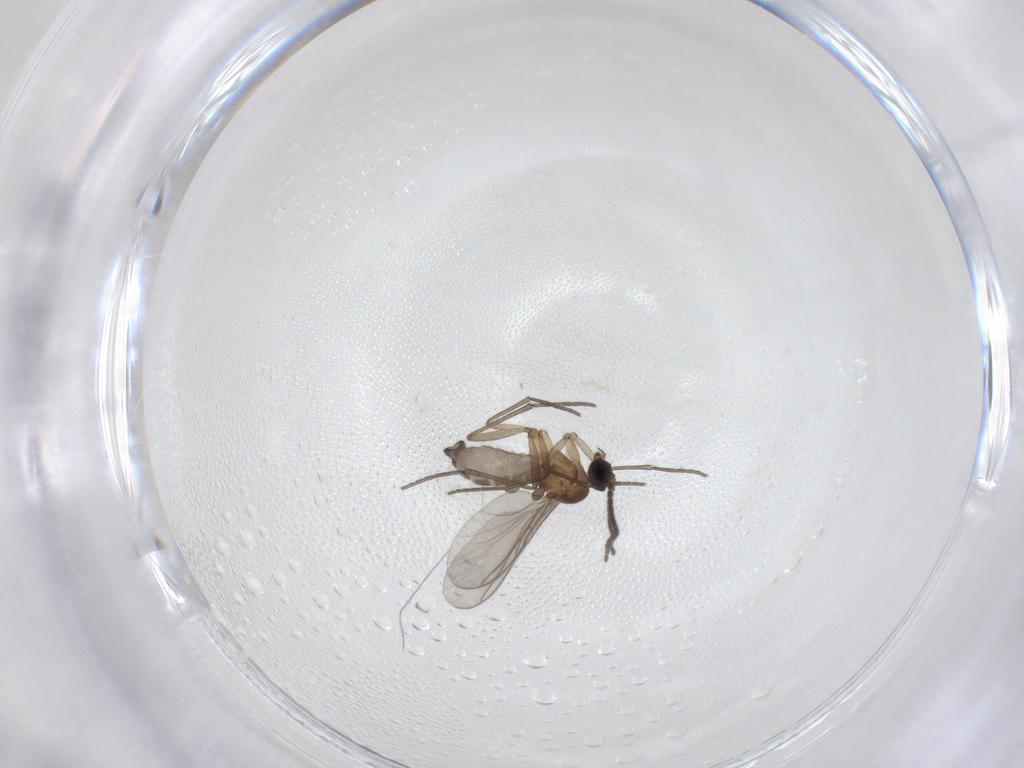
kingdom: Animalia
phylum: Arthropoda
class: Insecta
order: Diptera
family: Sciaridae
